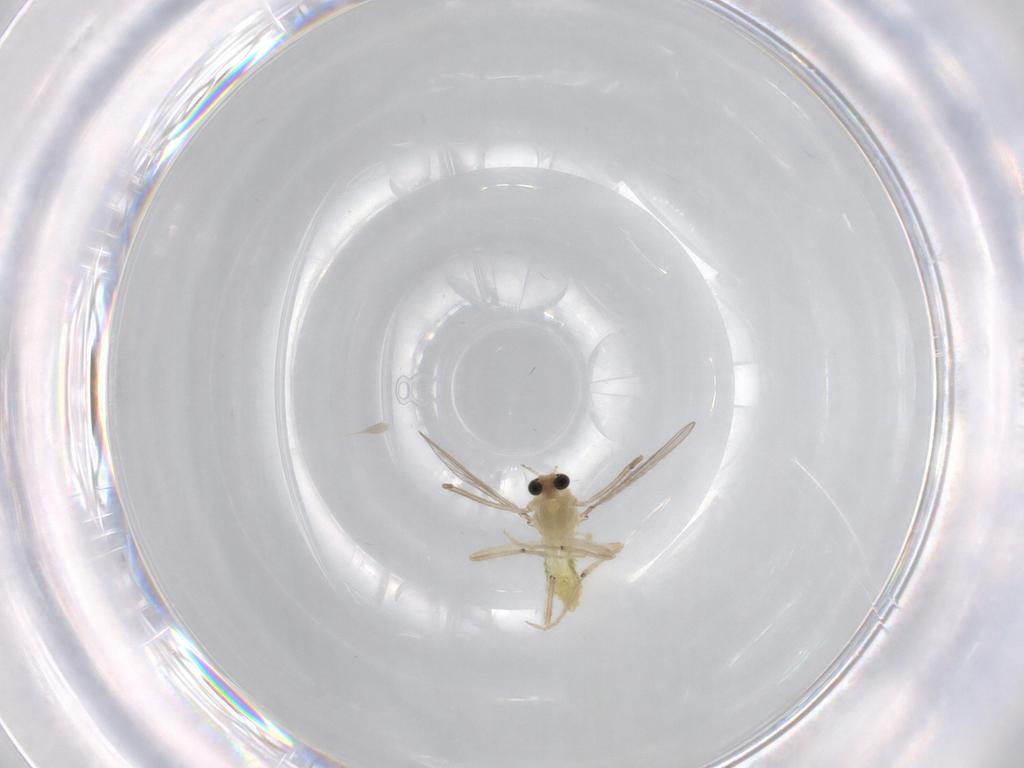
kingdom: Animalia
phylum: Arthropoda
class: Insecta
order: Diptera
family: Chironomidae
